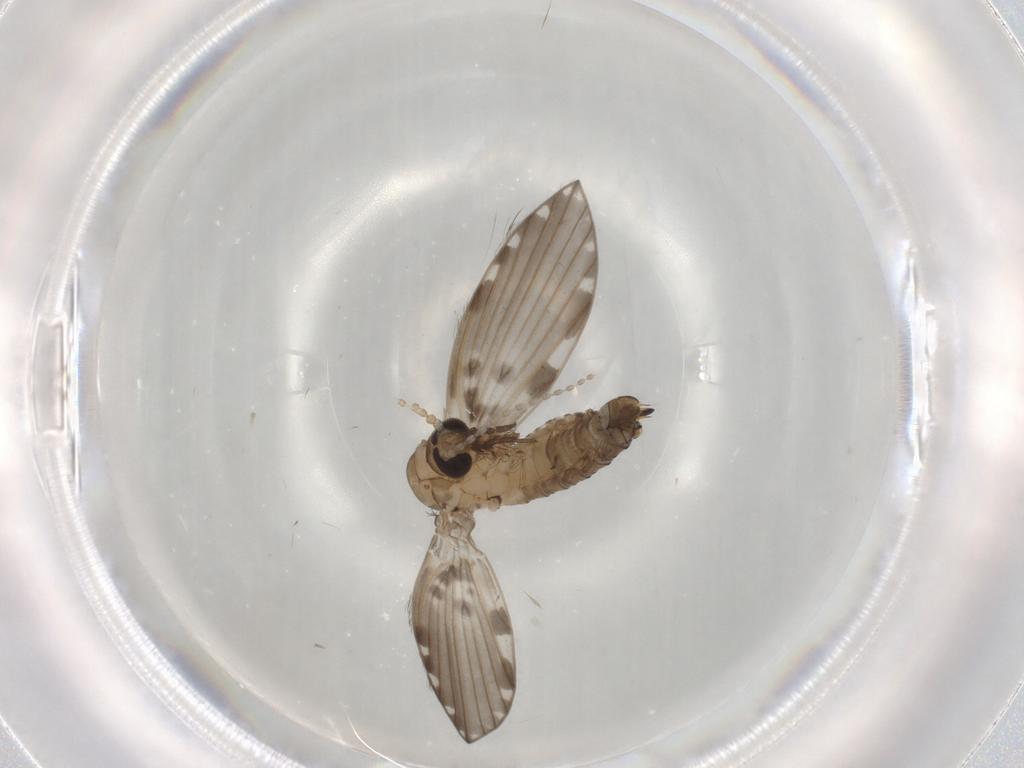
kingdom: Animalia
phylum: Arthropoda
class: Insecta
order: Diptera
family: Psychodidae
